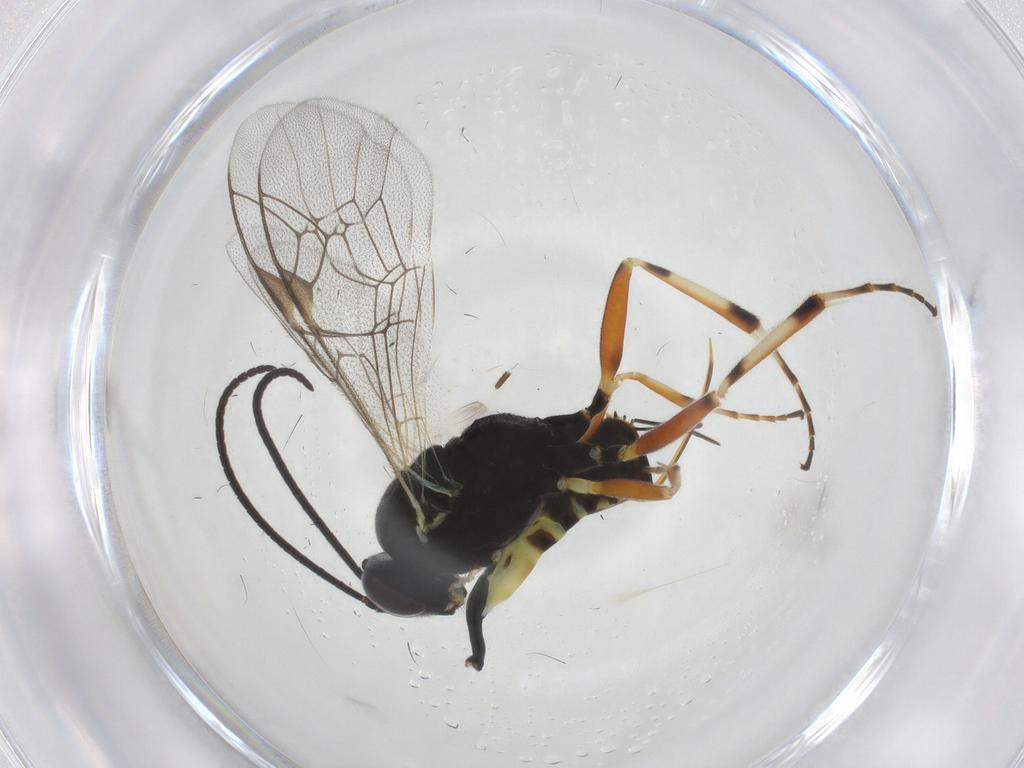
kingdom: Animalia
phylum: Arthropoda
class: Insecta
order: Hymenoptera
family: Ichneumonidae
